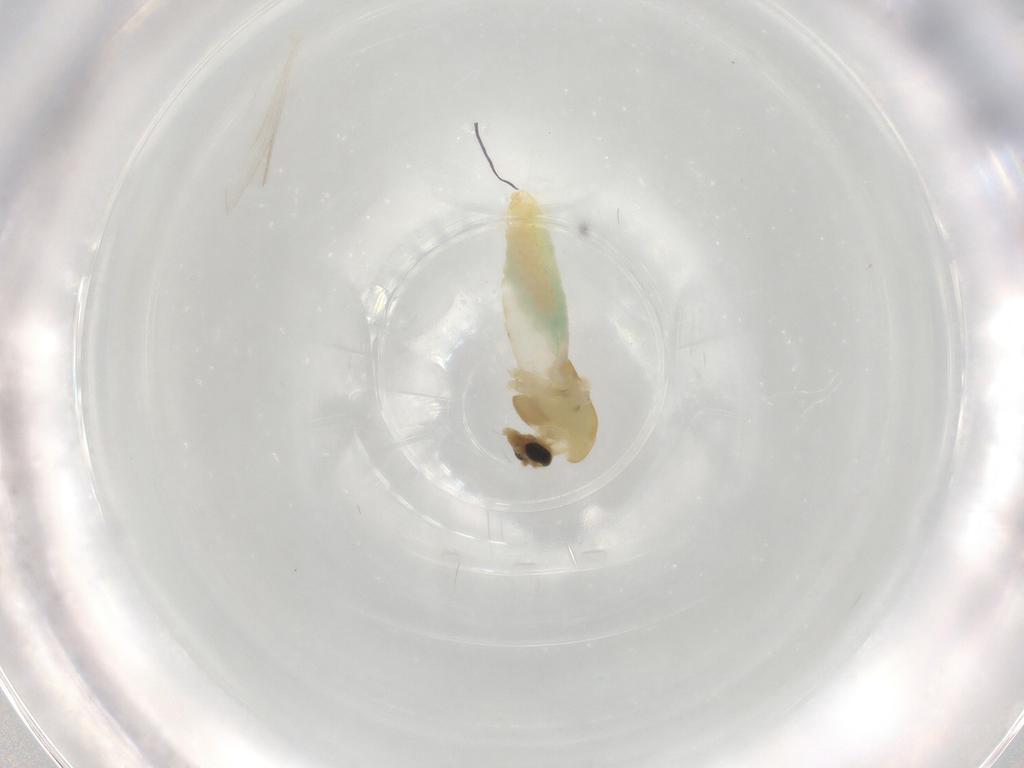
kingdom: Animalia
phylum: Arthropoda
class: Insecta
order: Diptera
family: Chironomidae
